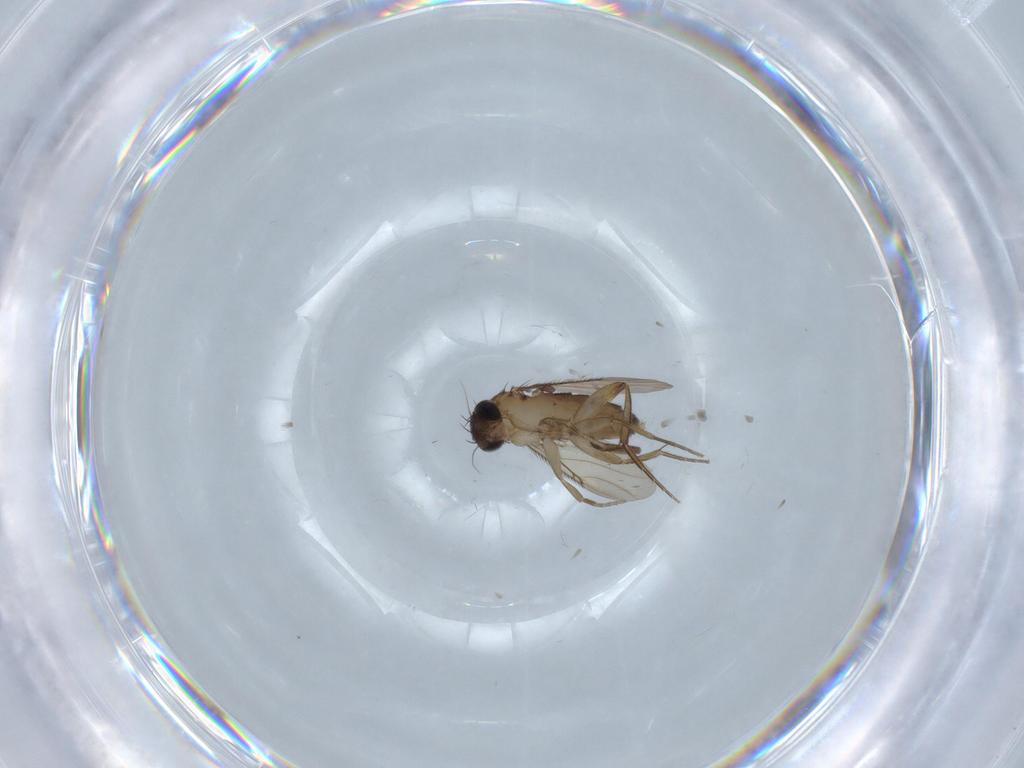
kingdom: Animalia
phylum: Arthropoda
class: Insecta
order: Diptera
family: Phoridae
